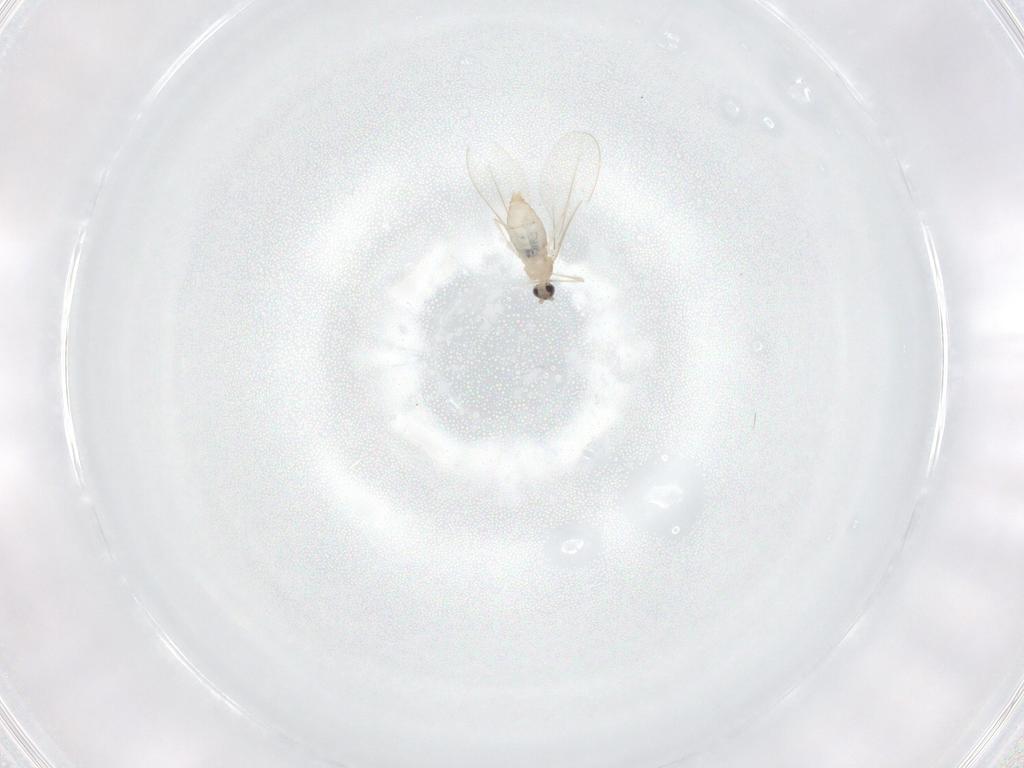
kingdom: Animalia
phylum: Arthropoda
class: Insecta
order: Diptera
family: Cecidomyiidae
